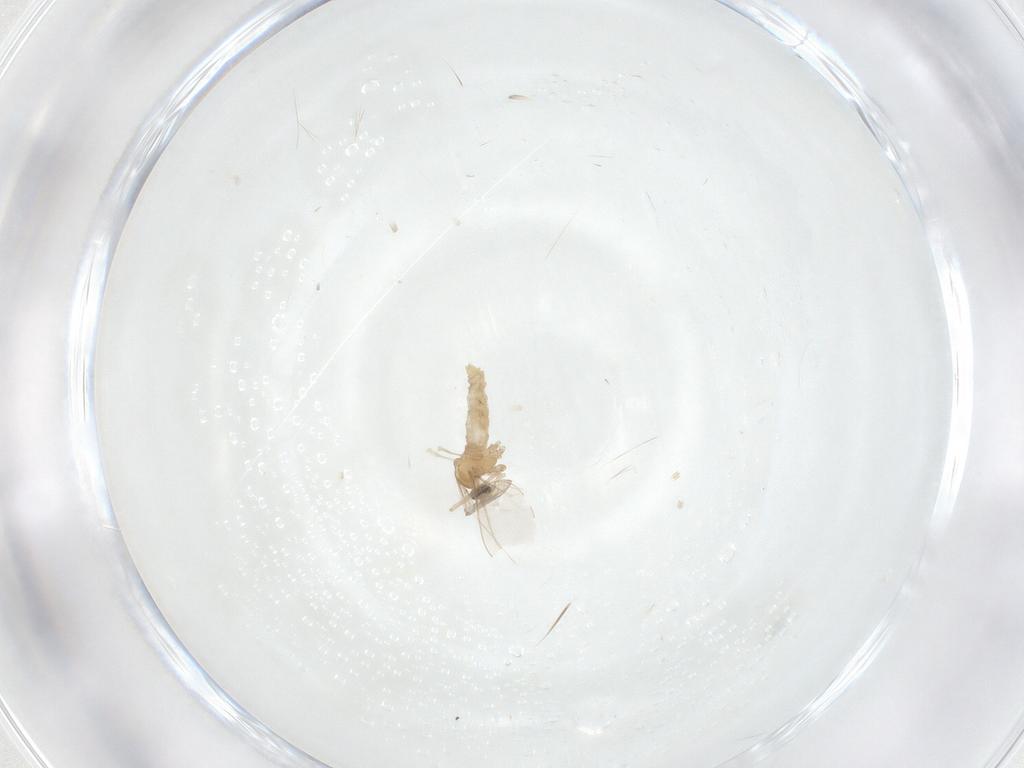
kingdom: Animalia
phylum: Arthropoda
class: Insecta
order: Diptera
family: Cecidomyiidae
